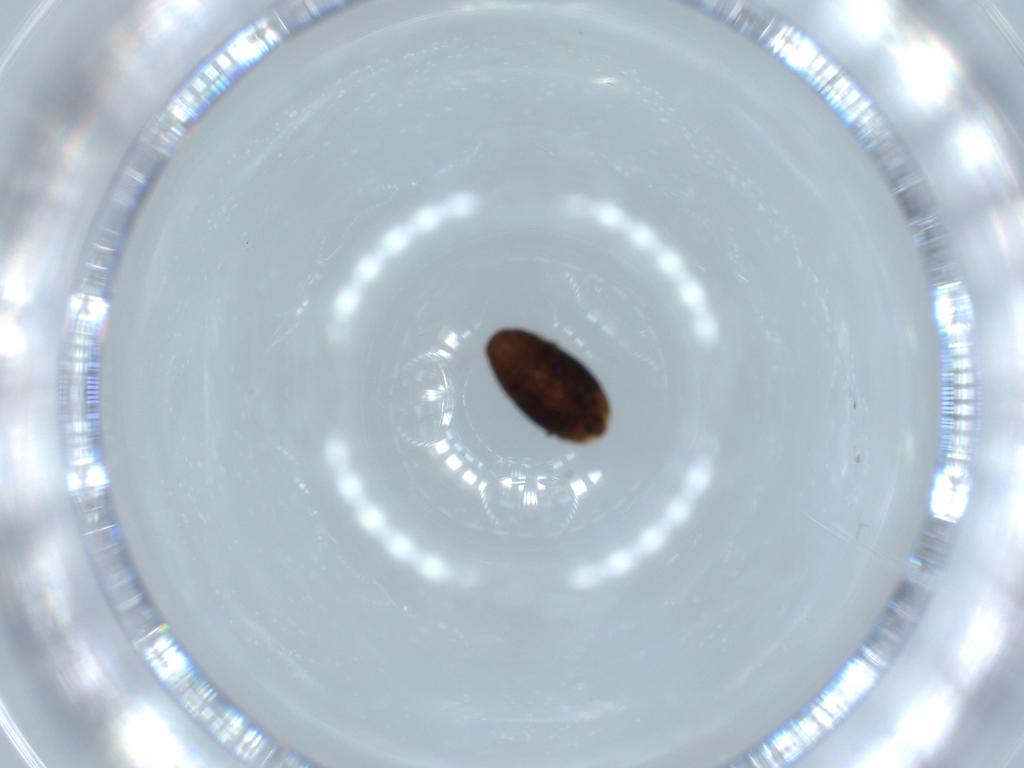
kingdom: Animalia
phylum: Arthropoda
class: Insecta
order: Coleoptera
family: Corylophidae
